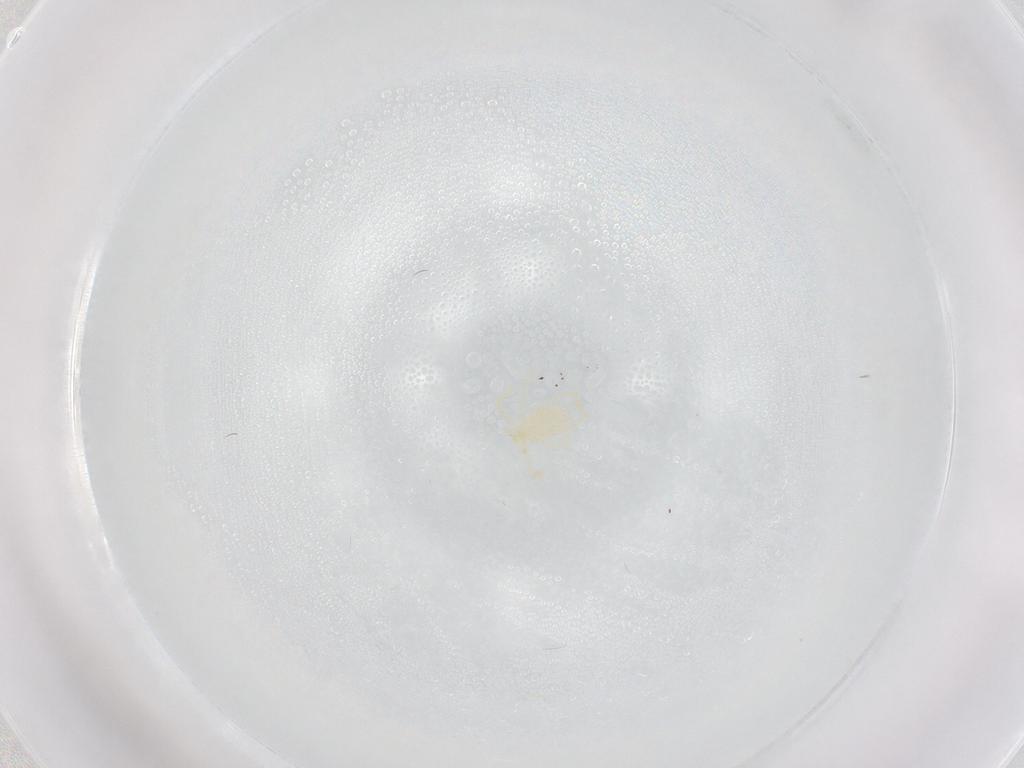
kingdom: Animalia
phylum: Arthropoda
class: Arachnida
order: Trombidiformes
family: Erythraeidae
